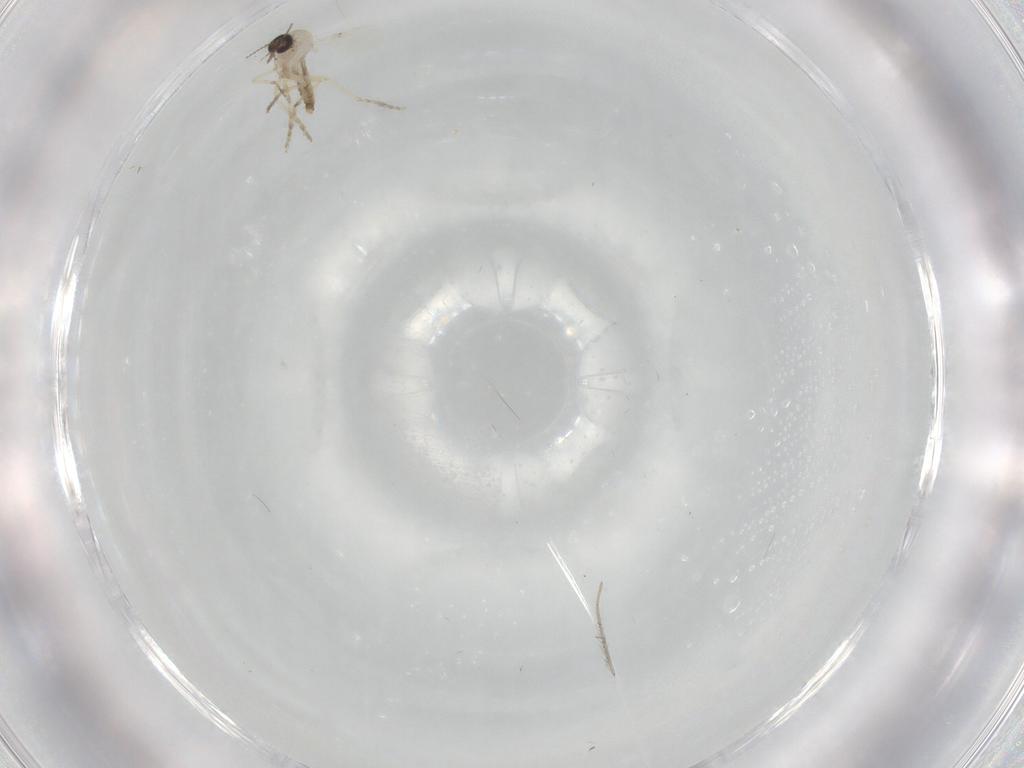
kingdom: Animalia
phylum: Arthropoda
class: Insecta
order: Diptera
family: Ceratopogonidae
